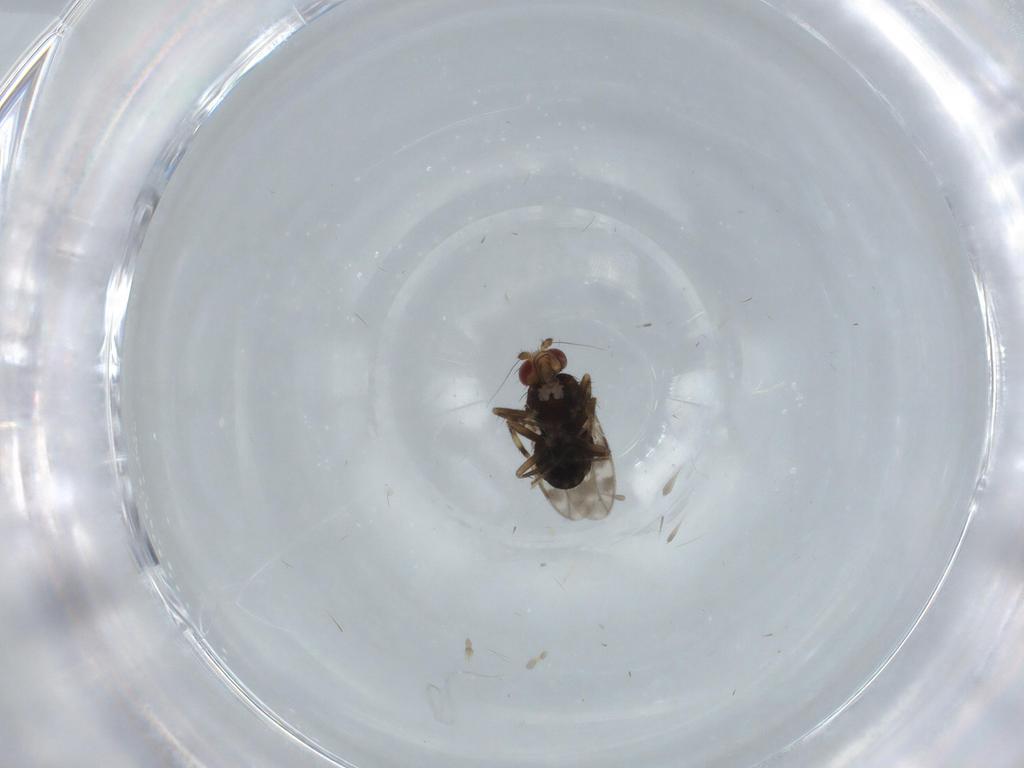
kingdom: Animalia
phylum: Arthropoda
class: Insecta
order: Diptera
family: Sphaeroceridae
